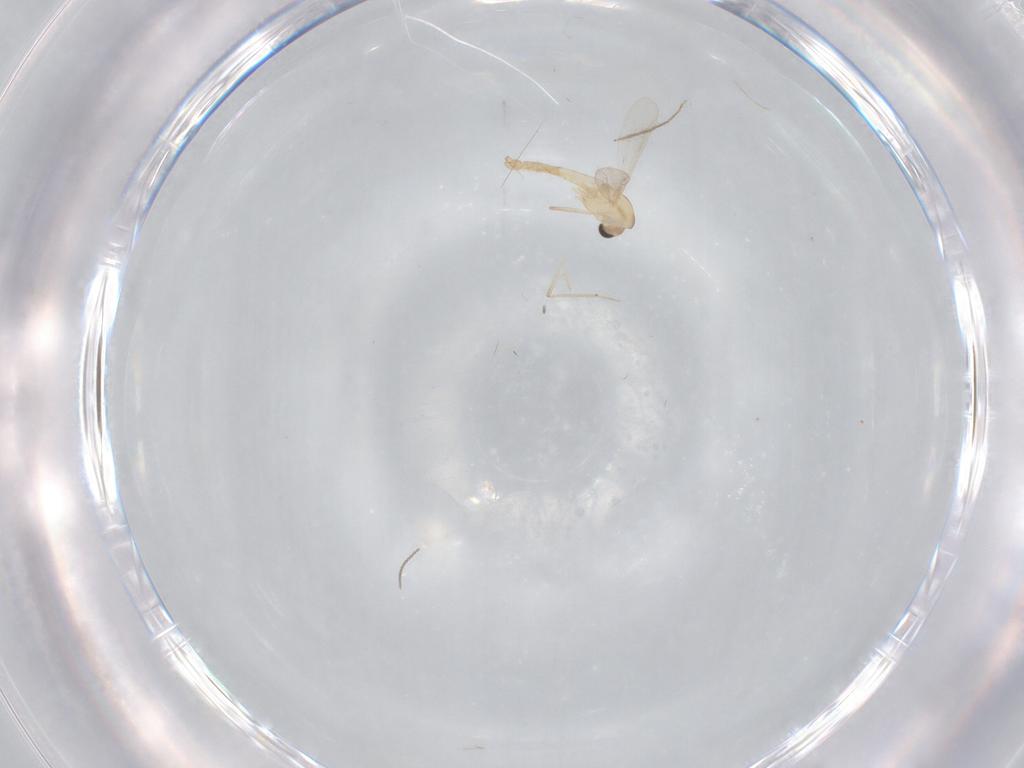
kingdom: Animalia
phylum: Arthropoda
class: Insecta
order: Diptera
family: Chironomidae
